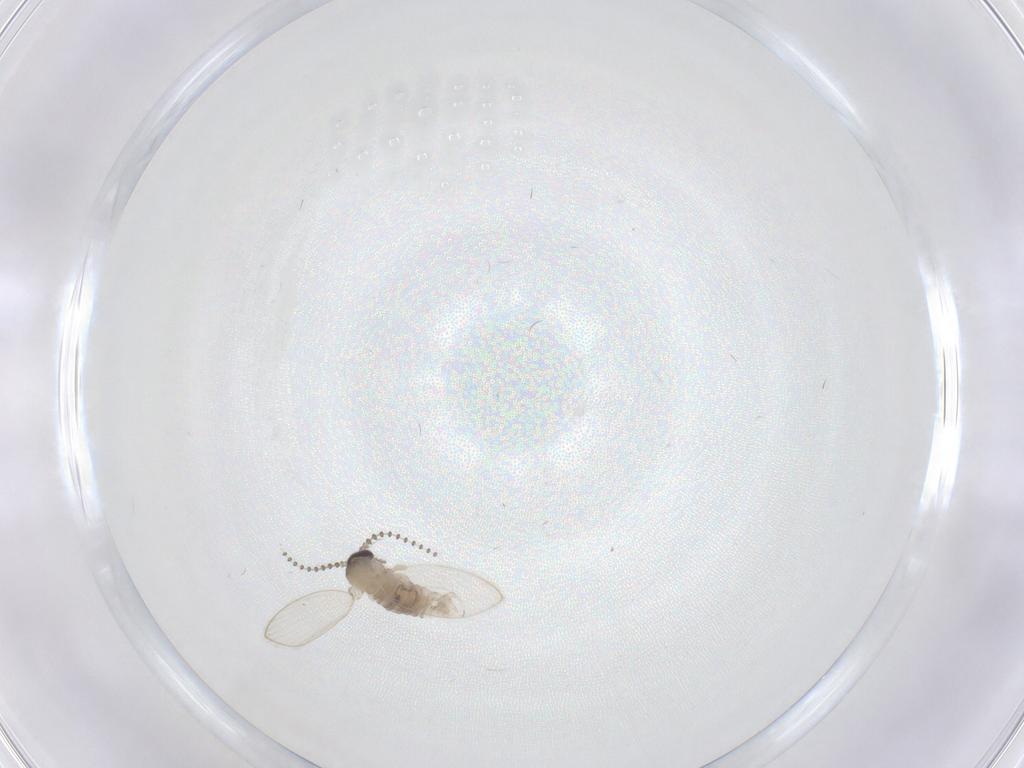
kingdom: Animalia
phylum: Arthropoda
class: Insecta
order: Diptera
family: Psychodidae
